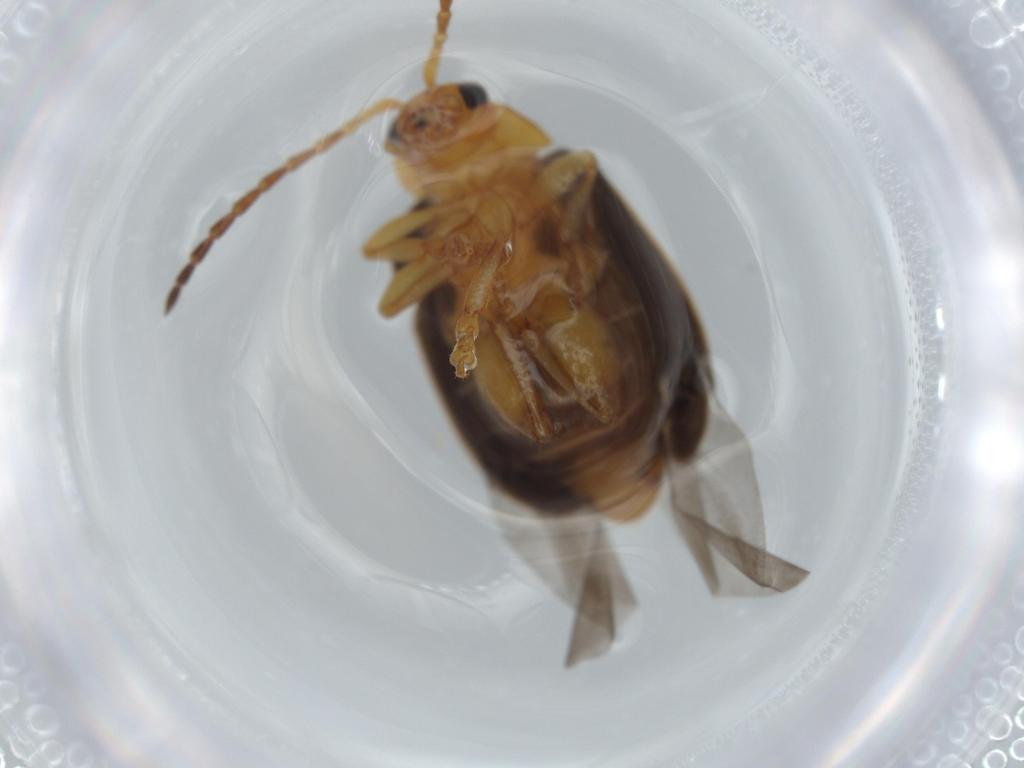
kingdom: Animalia
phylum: Arthropoda
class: Insecta
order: Coleoptera
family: Chrysomelidae
